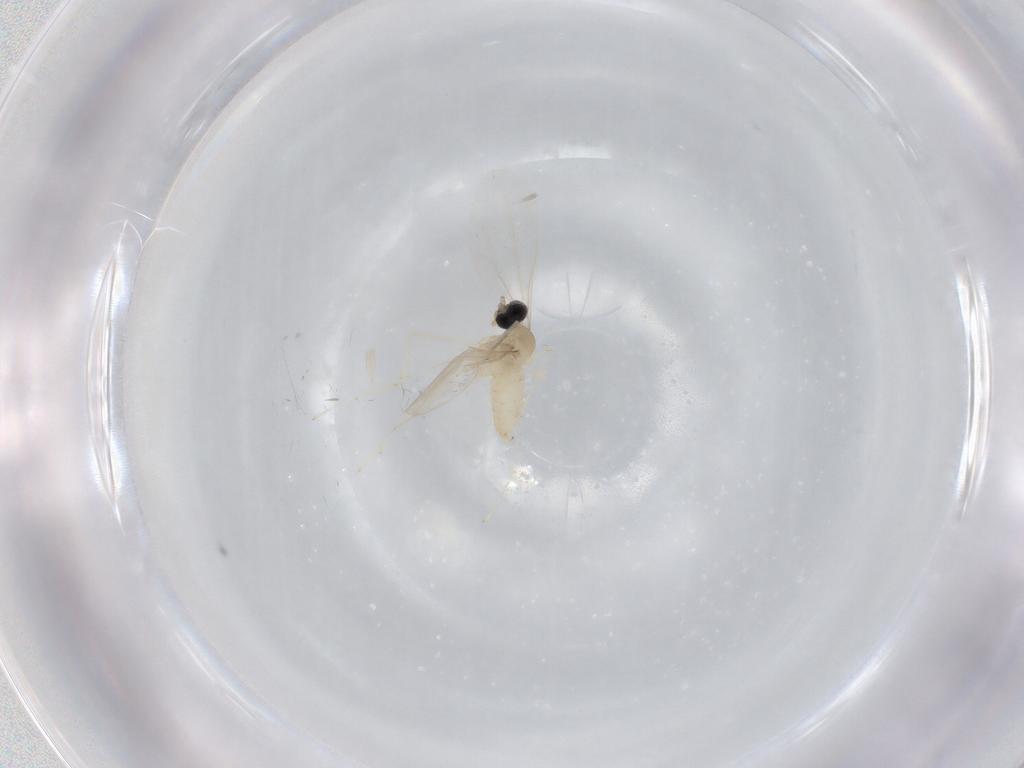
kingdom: Animalia
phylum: Arthropoda
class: Insecta
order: Diptera
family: Cecidomyiidae
